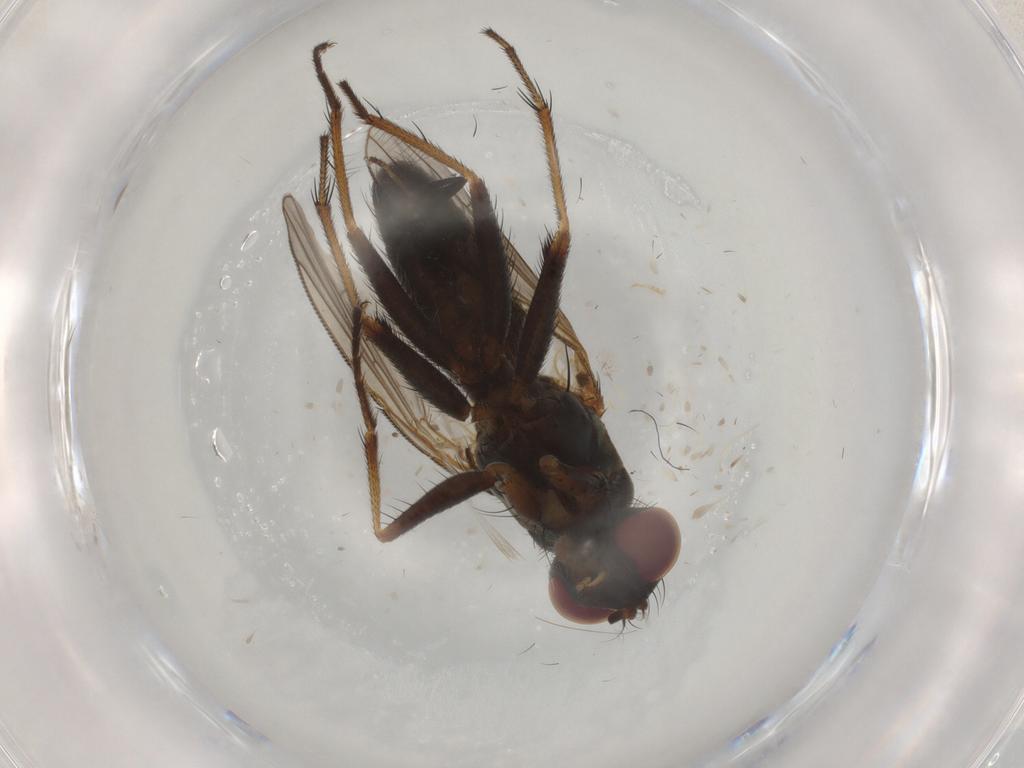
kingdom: Animalia
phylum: Arthropoda
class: Insecta
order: Diptera
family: Muscidae
